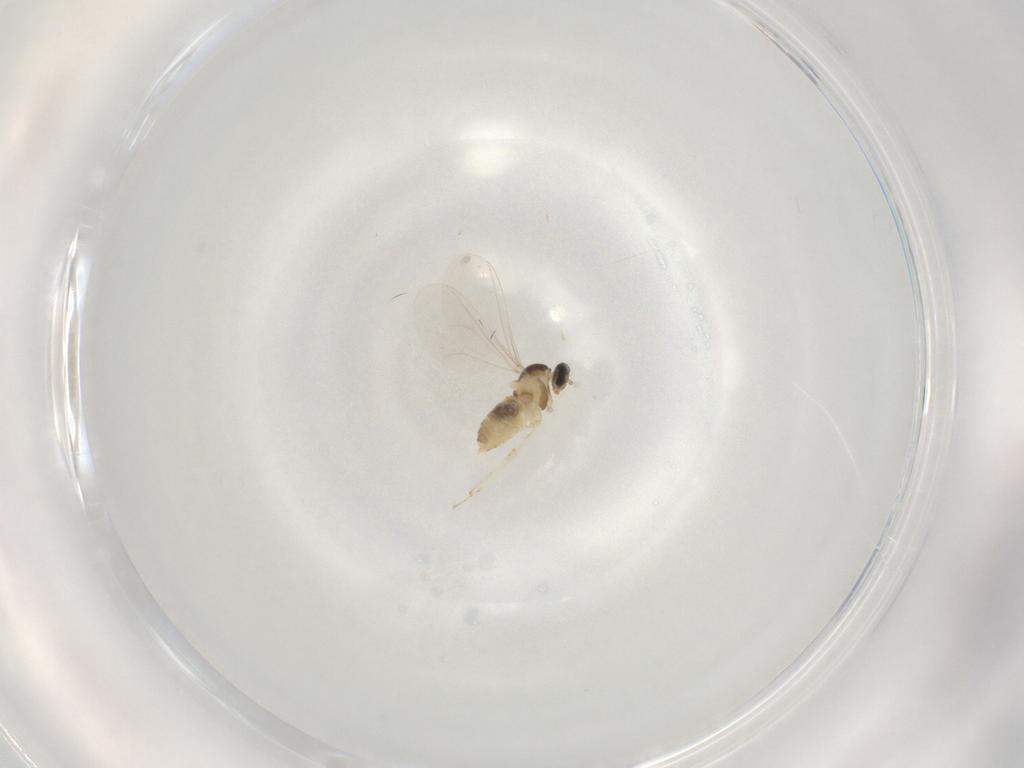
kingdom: Animalia
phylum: Arthropoda
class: Insecta
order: Diptera
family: Cecidomyiidae
